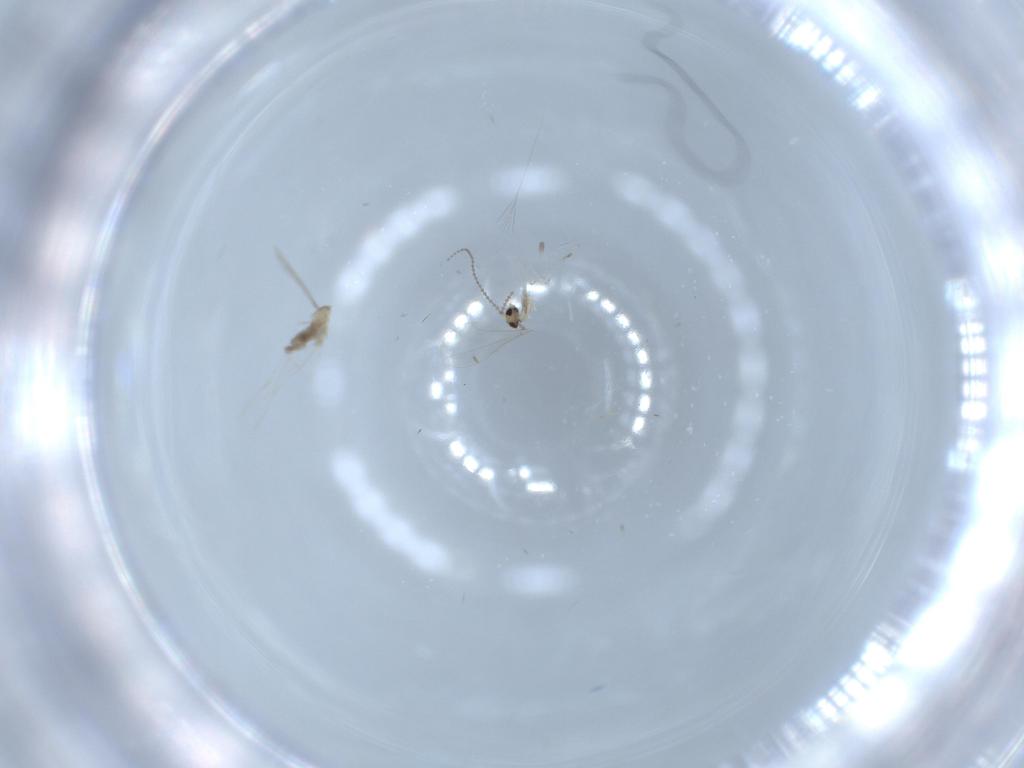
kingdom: Animalia
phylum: Arthropoda
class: Insecta
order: Diptera
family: Cecidomyiidae
